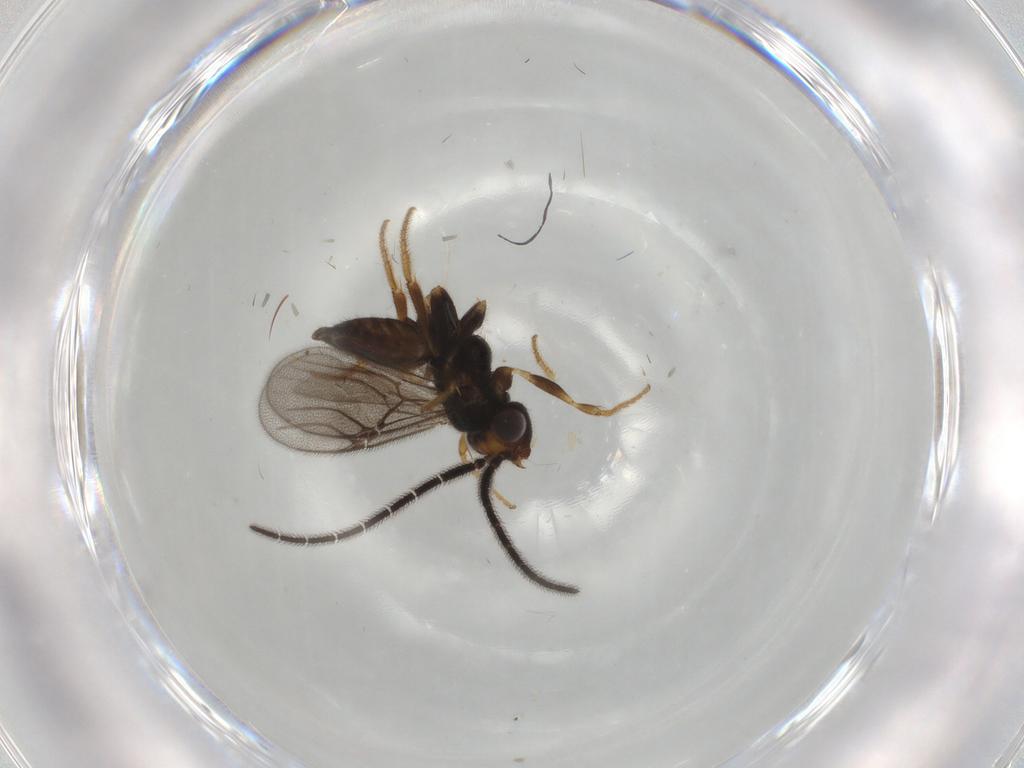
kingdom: Animalia
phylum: Arthropoda
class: Insecta
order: Hymenoptera
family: Dryinidae
